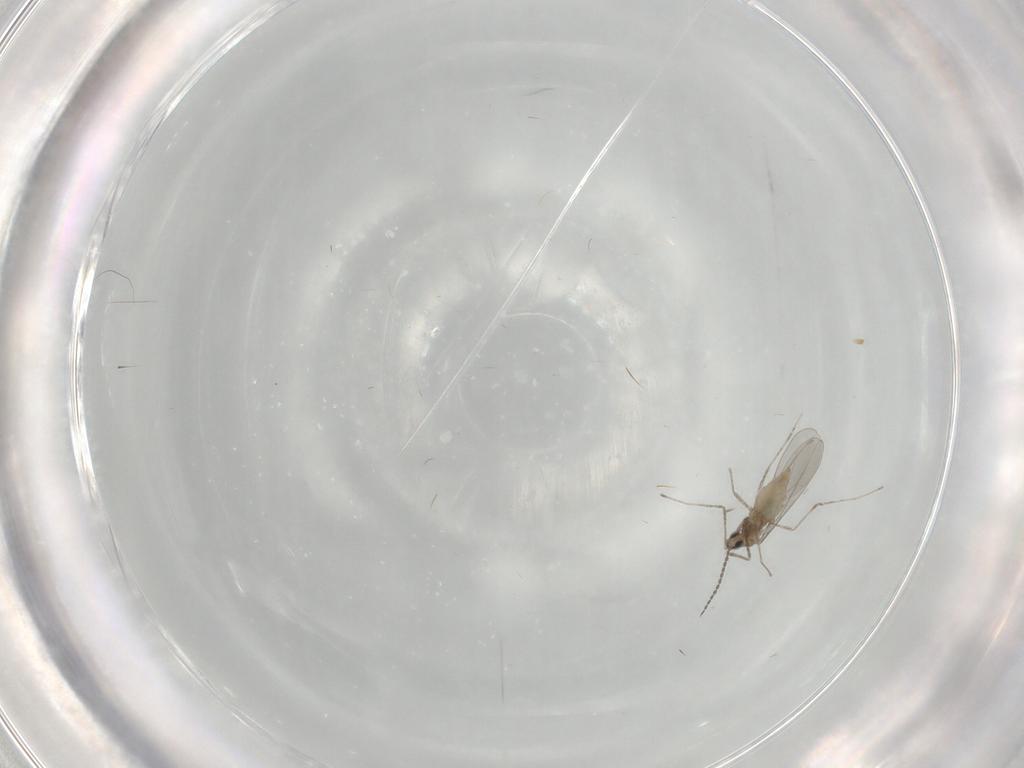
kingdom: Animalia
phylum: Arthropoda
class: Insecta
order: Diptera
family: Cecidomyiidae
